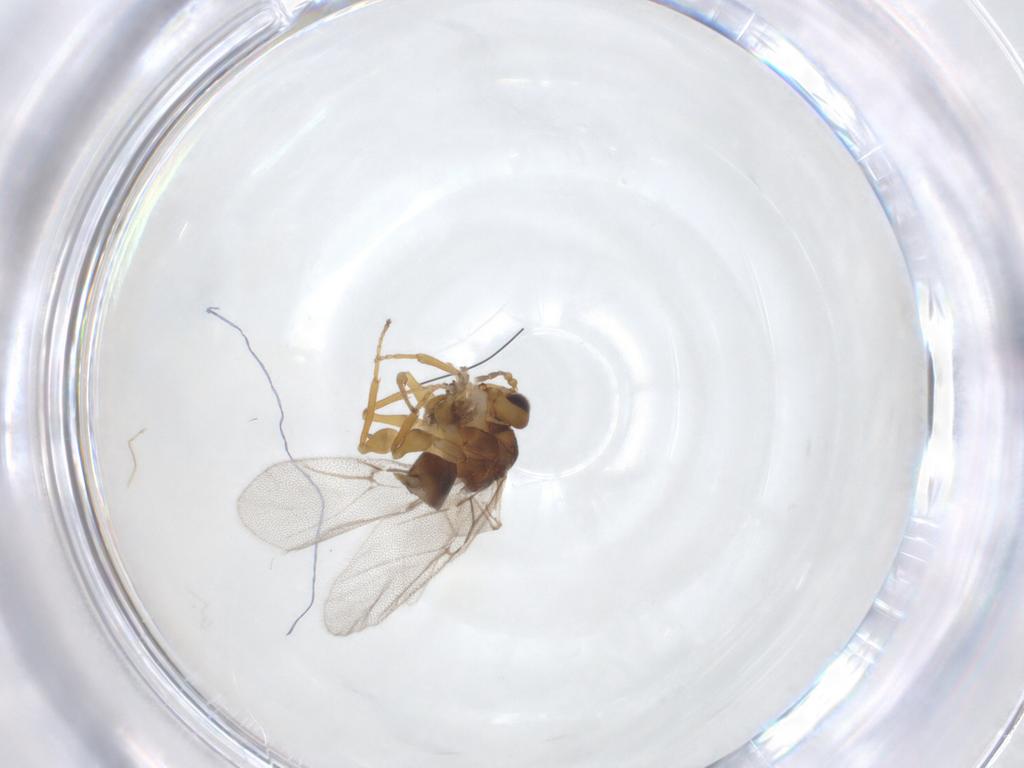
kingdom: Animalia
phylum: Arthropoda
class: Insecta
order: Hymenoptera
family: Cynipidae
